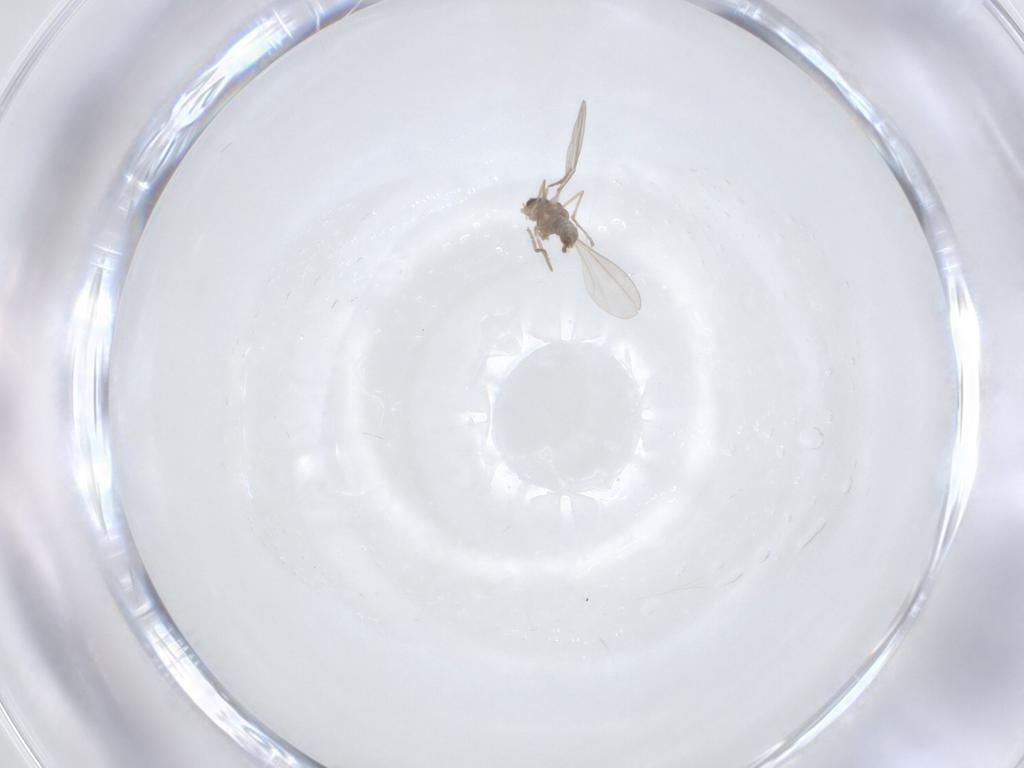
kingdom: Animalia
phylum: Arthropoda
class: Insecta
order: Diptera
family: Cecidomyiidae
